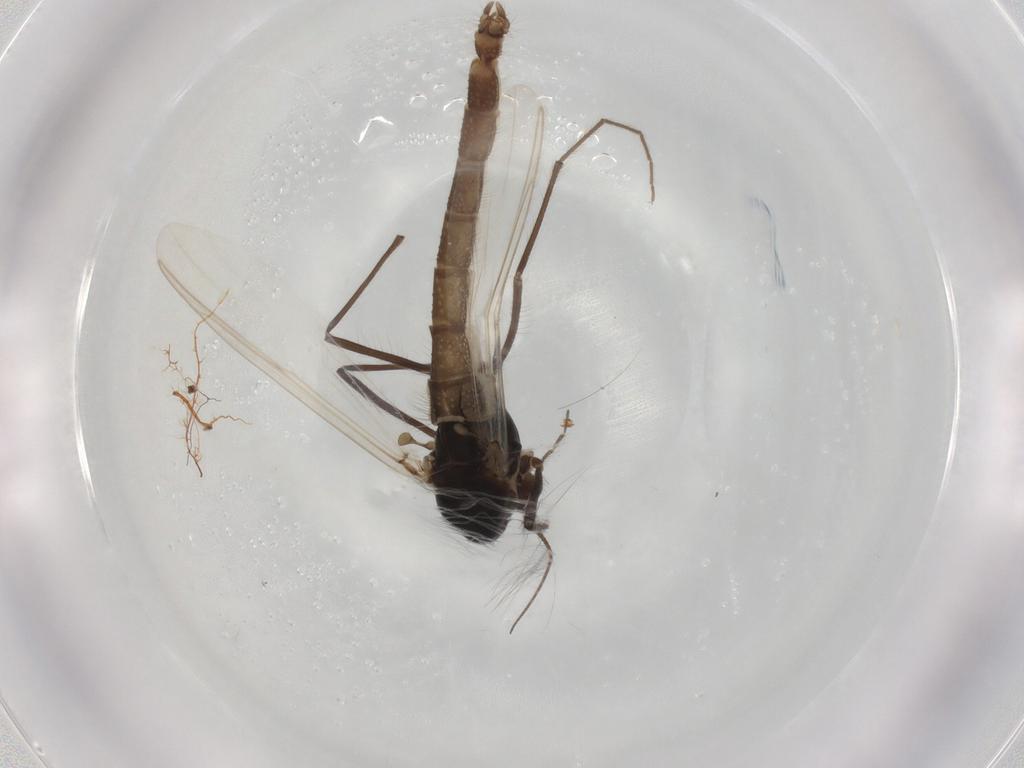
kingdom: Animalia
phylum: Arthropoda
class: Insecta
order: Diptera
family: Chironomidae
